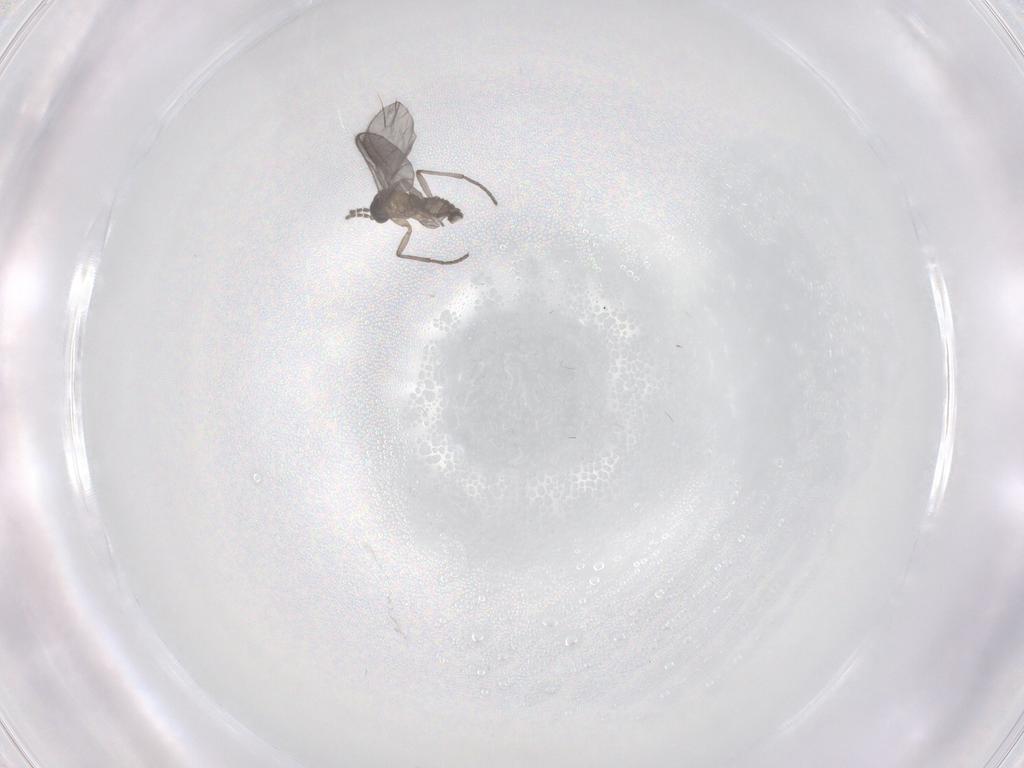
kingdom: Animalia
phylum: Arthropoda
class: Insecta
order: Diptera
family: Sciaridae
